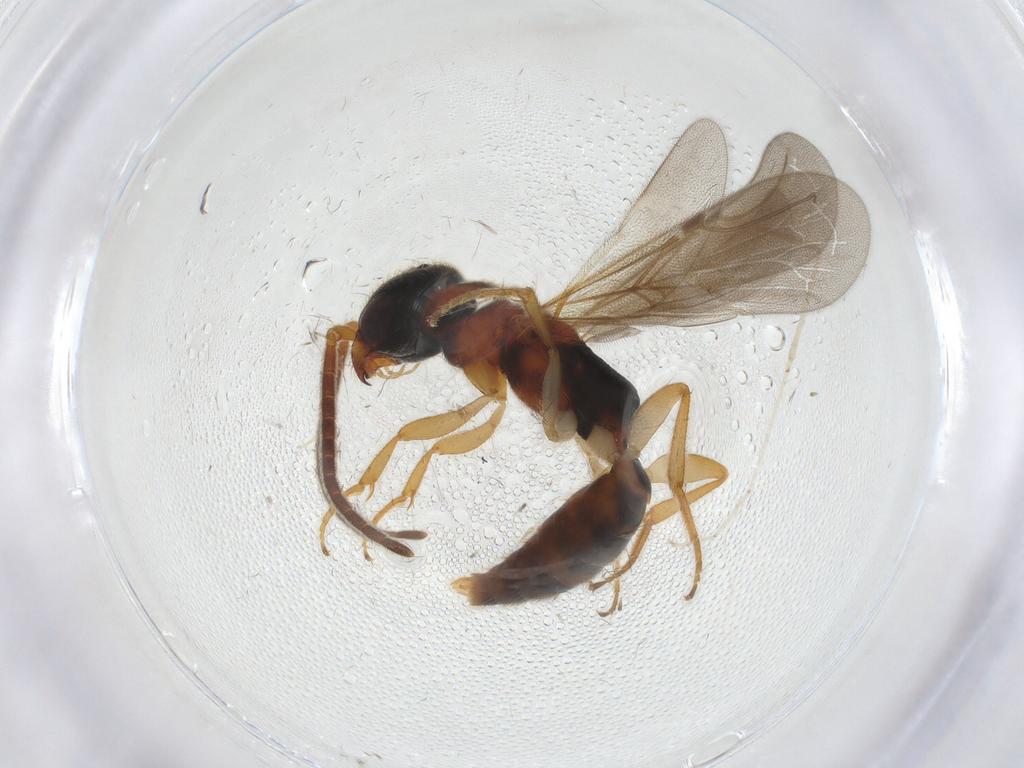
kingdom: Animalia
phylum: Arthropoda
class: Insecta
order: Hymenoptera
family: Bethylidae
